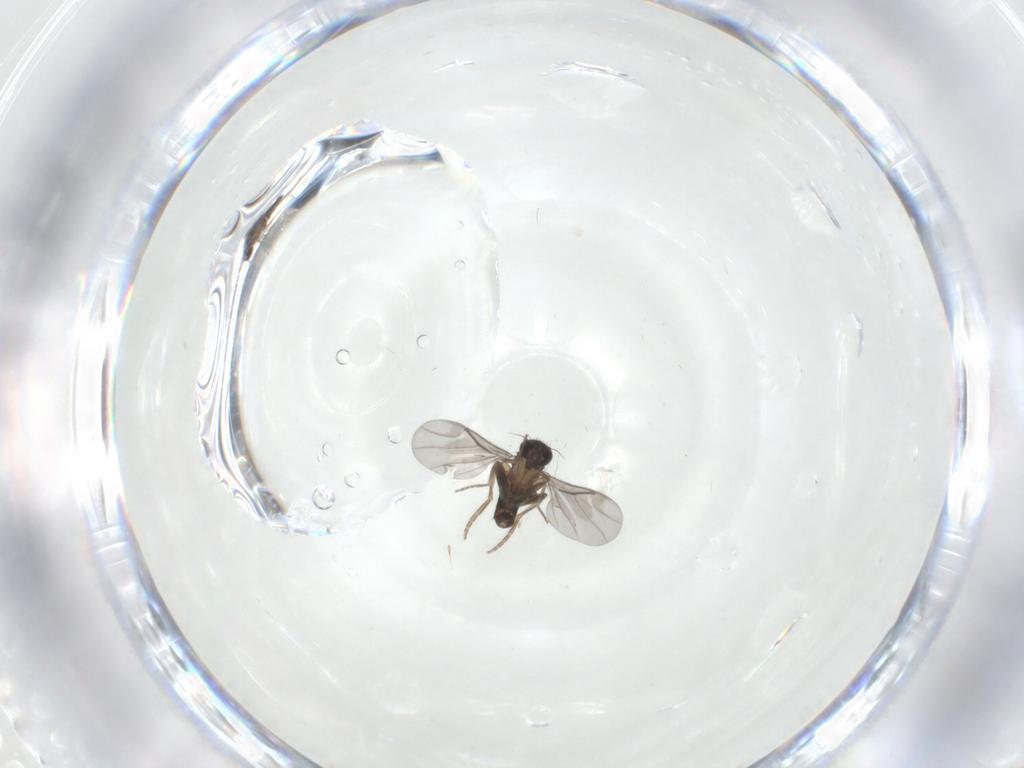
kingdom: Animalia
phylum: Arthropoda
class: Insecta
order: Diptera
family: Phoridae
